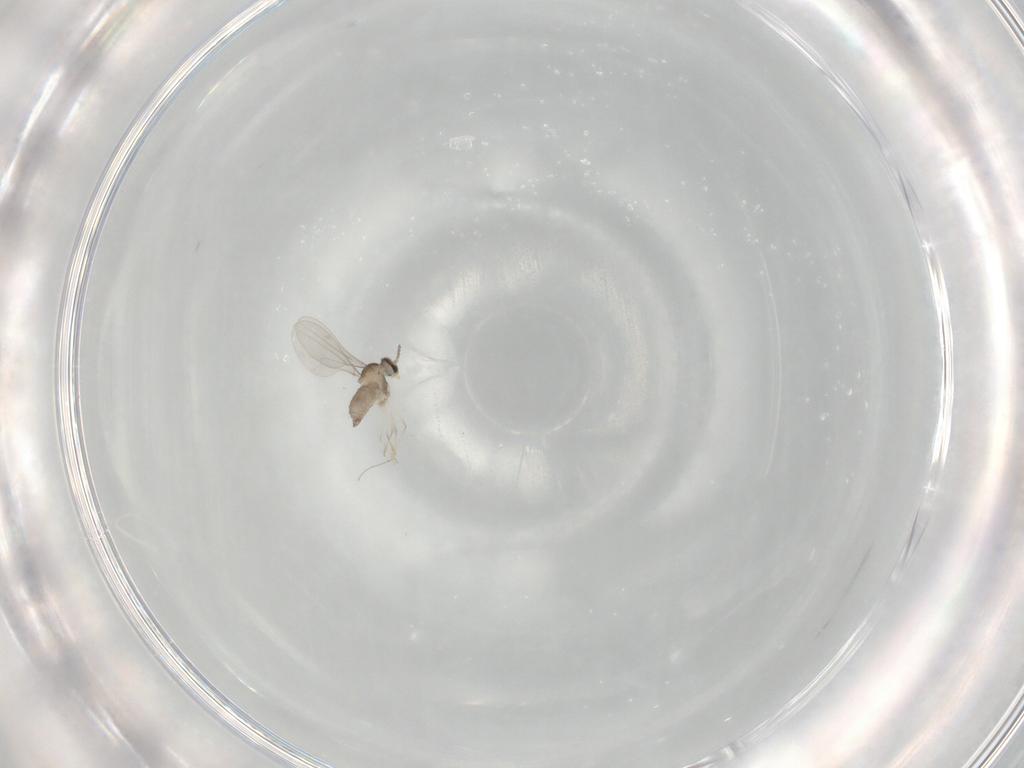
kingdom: Animalia
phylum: Arthropoda
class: Insecta
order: Diptera
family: Cecidomyiidae
